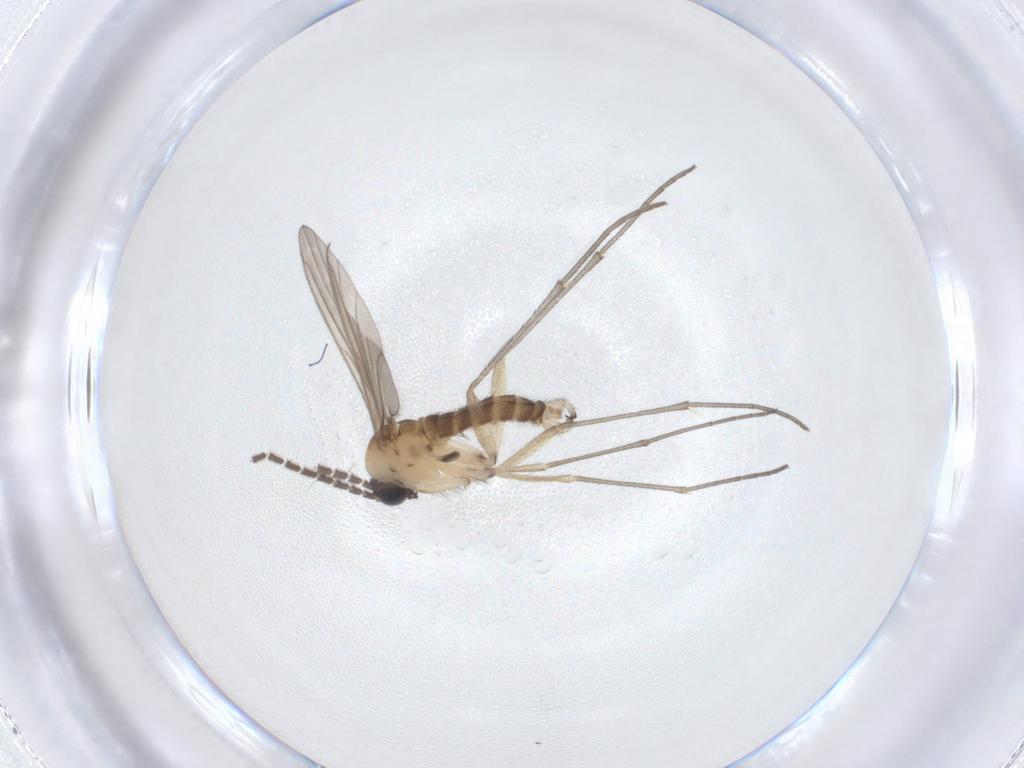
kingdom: Animalia
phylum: Arthropoda
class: Insecta
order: Diptera
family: Sciaridae
